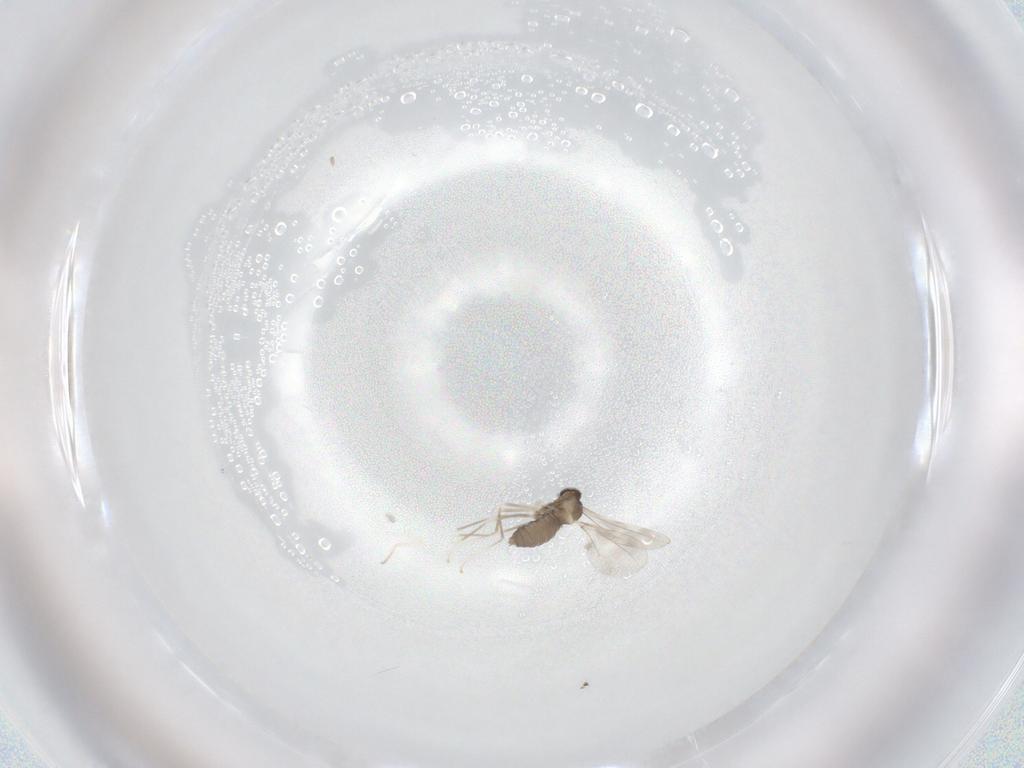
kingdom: Animalia
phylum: Arthropoda
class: Insecta
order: Diptera
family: Cecidomyiidae
